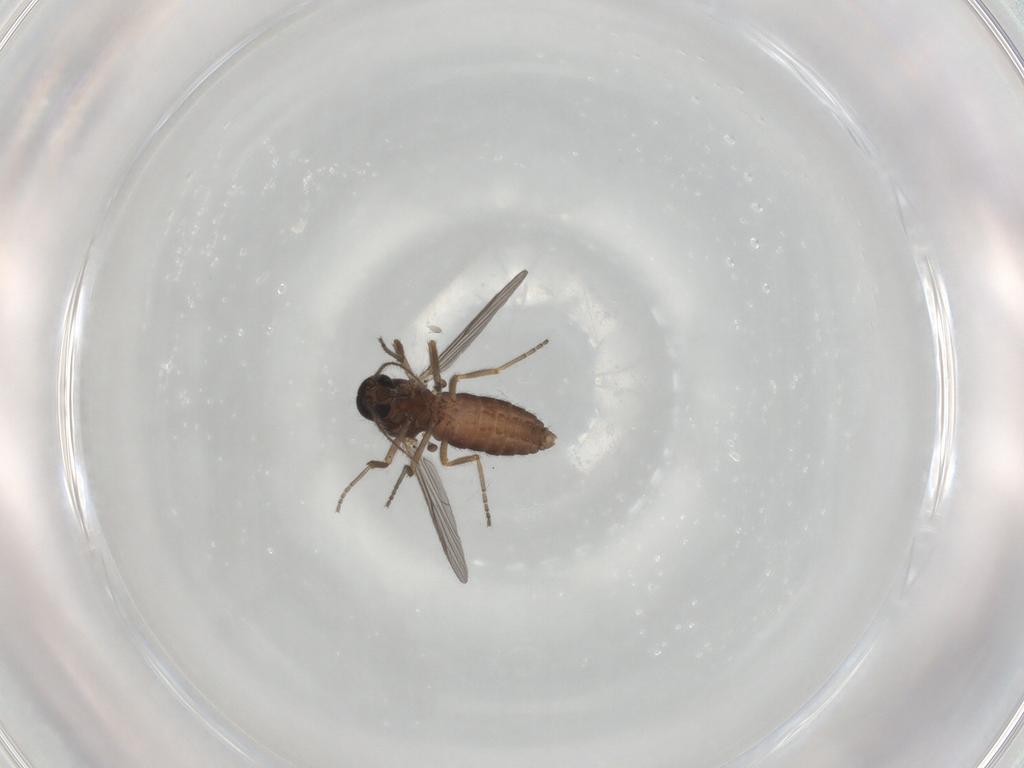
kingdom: Animalia
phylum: Arthropoda
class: Insecta
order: Diptera
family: Ceratopogonidae
